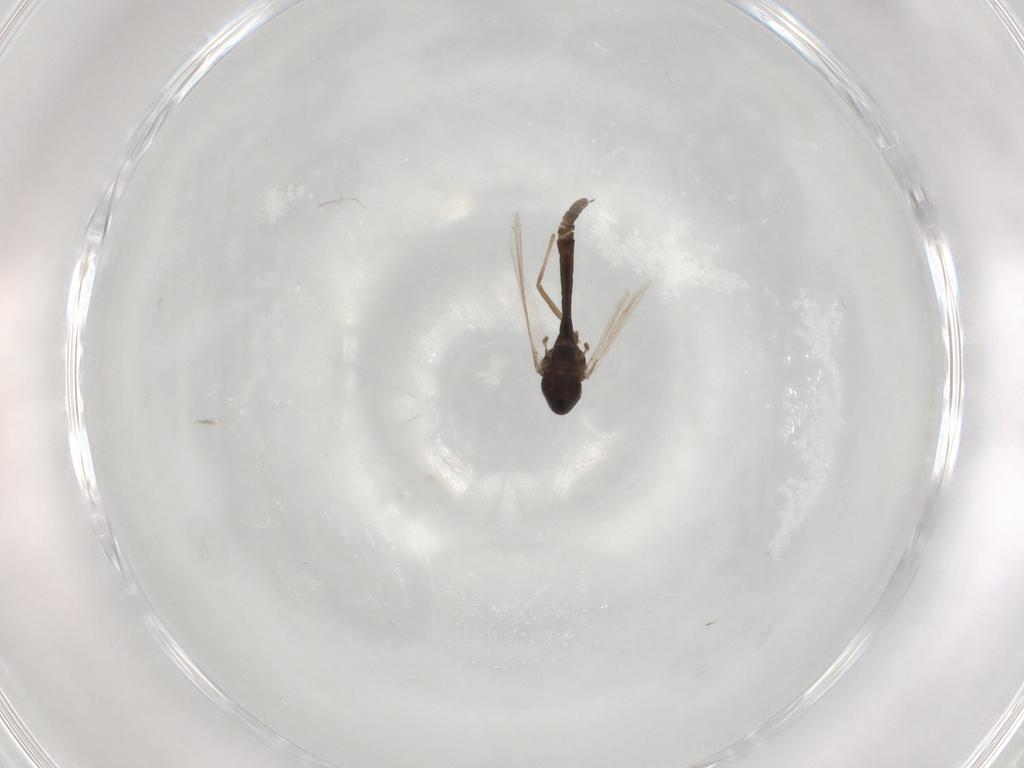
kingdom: Animalia
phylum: Arthropoda
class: Insecta
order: Diptera
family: Chironomidae
